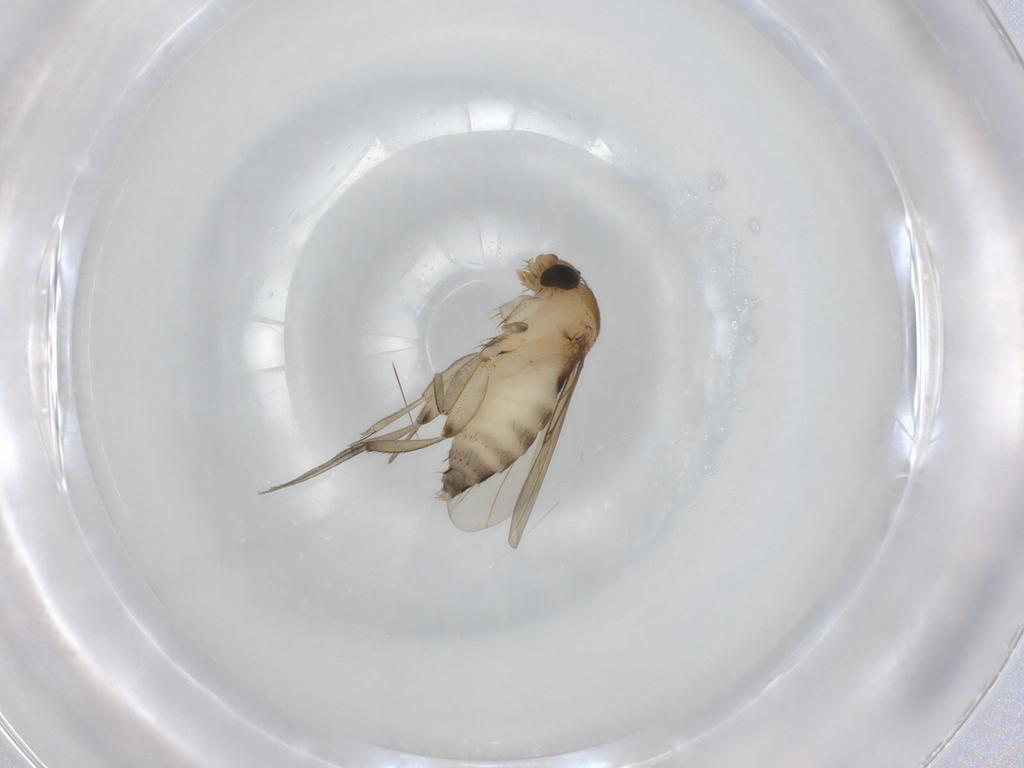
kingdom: Animalia
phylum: Arthropoda
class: Insecta
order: Diptera
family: Phoridae
